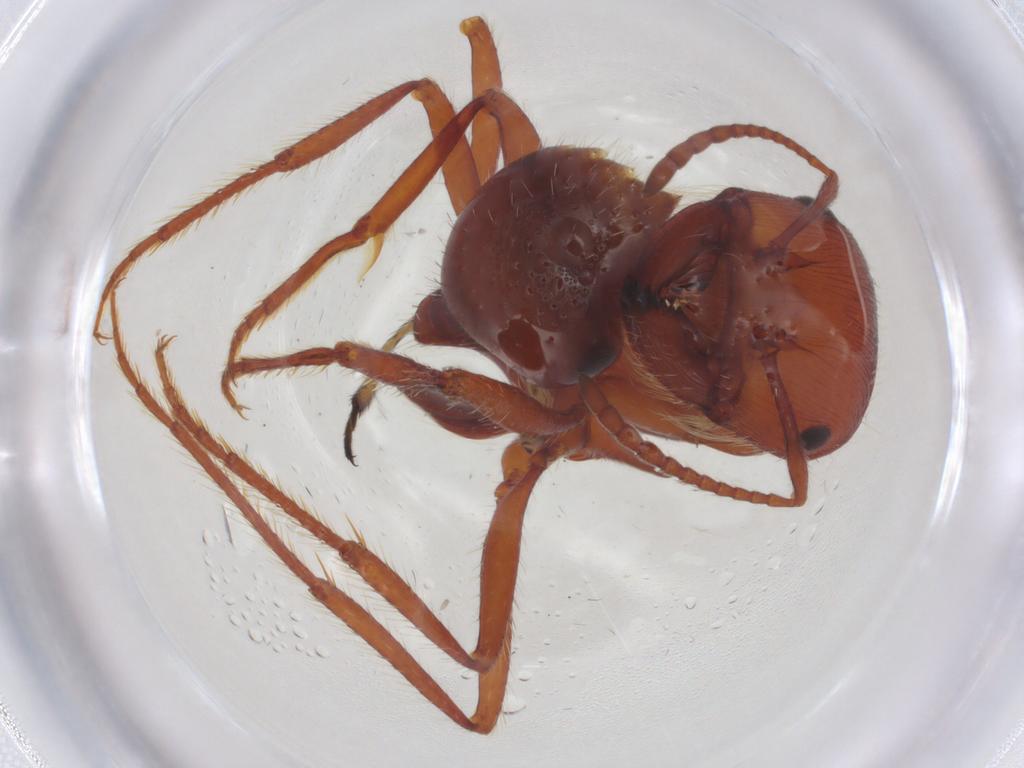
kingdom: Animalia
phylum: Arthropoda
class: Insecta
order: Hymenoptera
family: Formicidae
